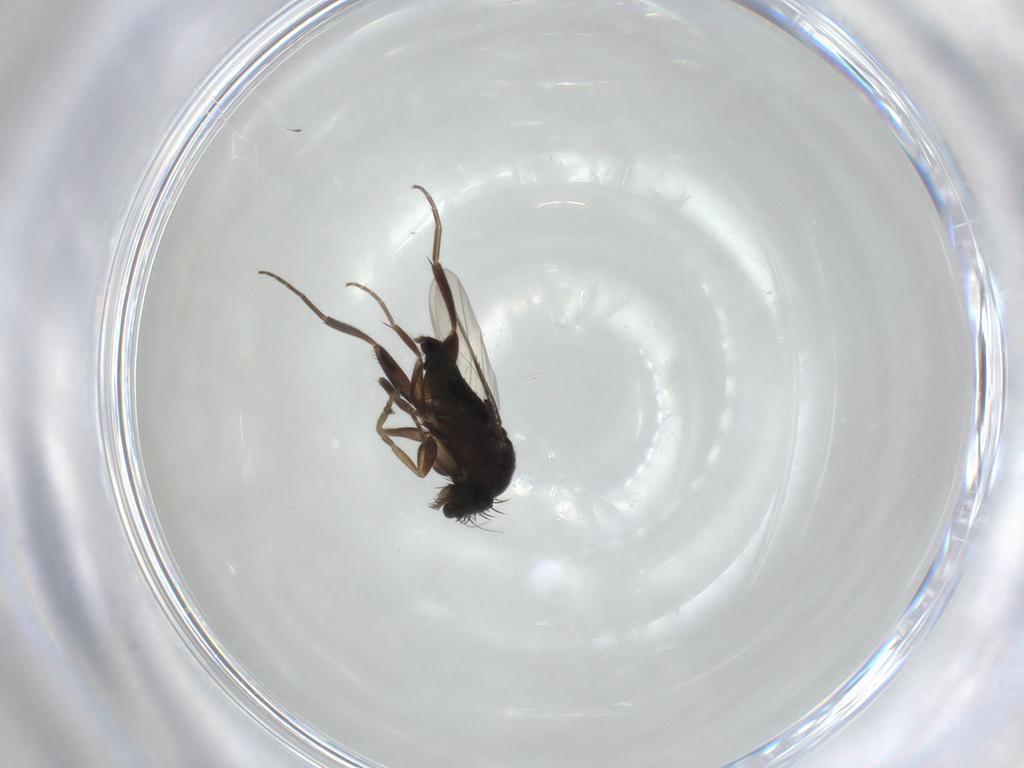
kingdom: Animalia
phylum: Arthropoda
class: Insecta
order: Diptera
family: Phoridae
